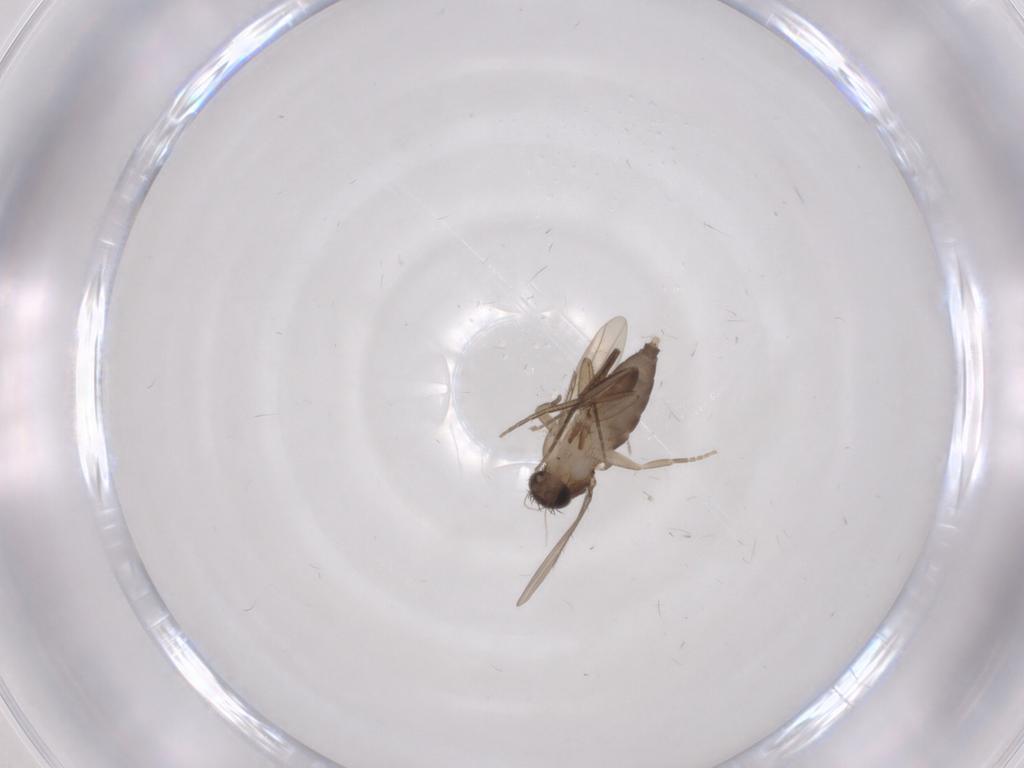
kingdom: Animalia
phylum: Arthropoda
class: Insecta
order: Diptera
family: Phoridae
